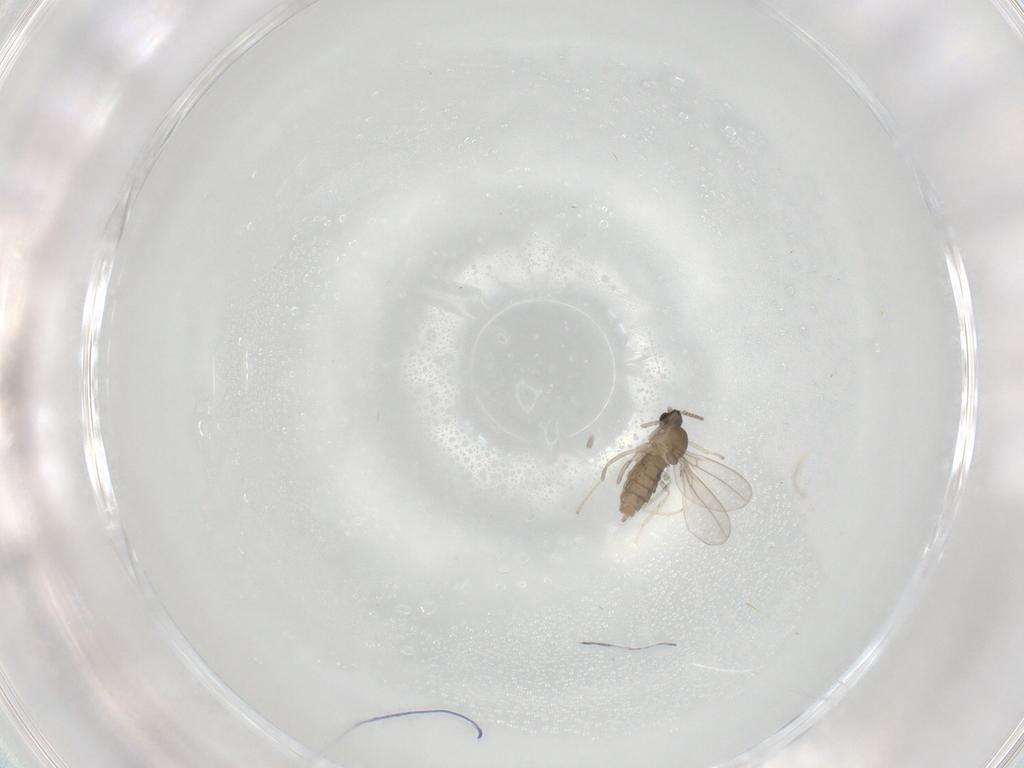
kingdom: Animalia
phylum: Arthropoda
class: Insecta
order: Diptera
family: Cecidomyiidae
